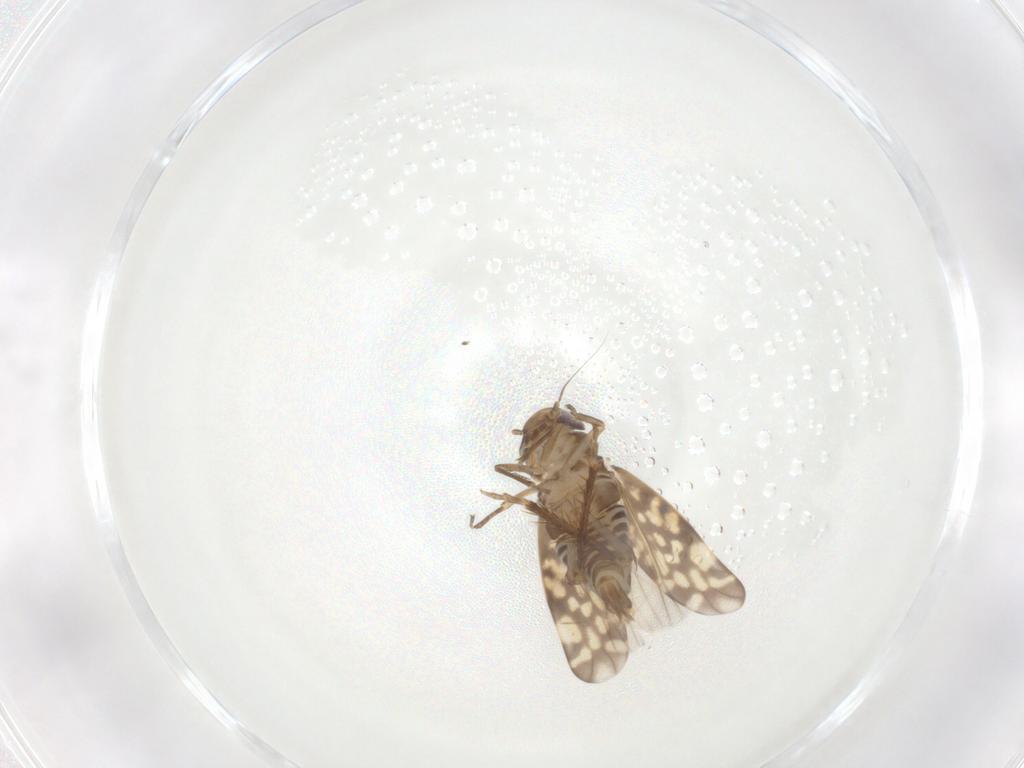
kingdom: Animalia
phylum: Arthropoda
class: Insecta
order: Hemiptera
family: Cicadellidae
